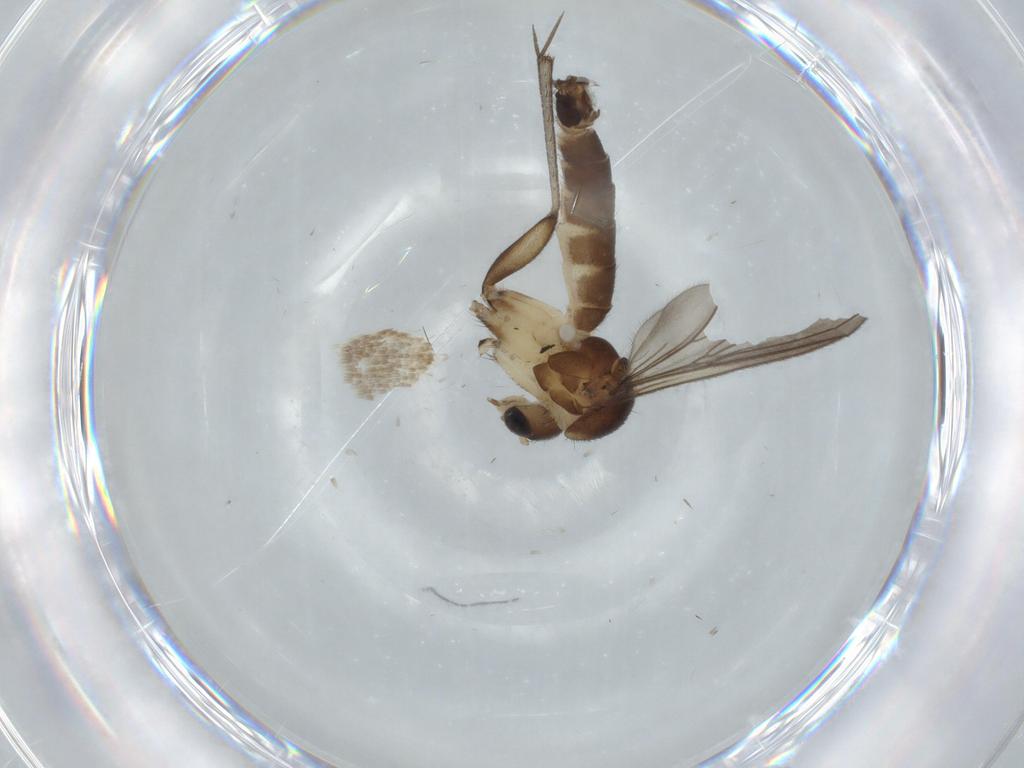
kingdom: Animalia
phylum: Arthropoda
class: Insecta
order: Diptera
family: Mycetophilidae
